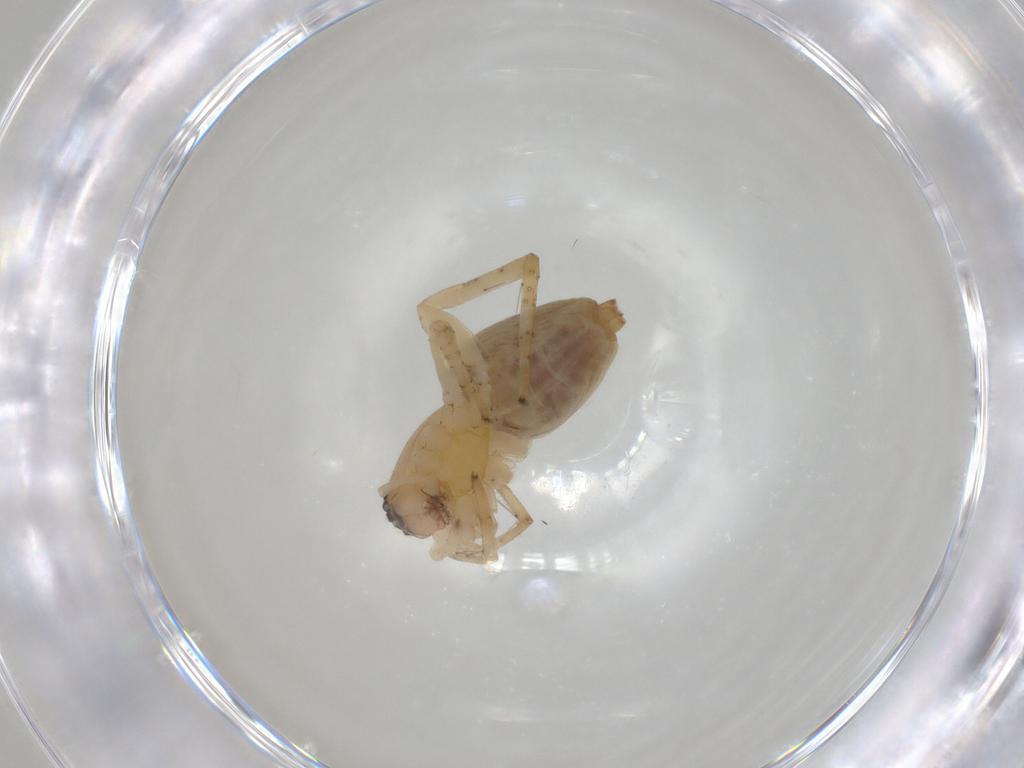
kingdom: Animalia
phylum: Arthropoda
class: Arachnida
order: Araneae
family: Clubionidae
